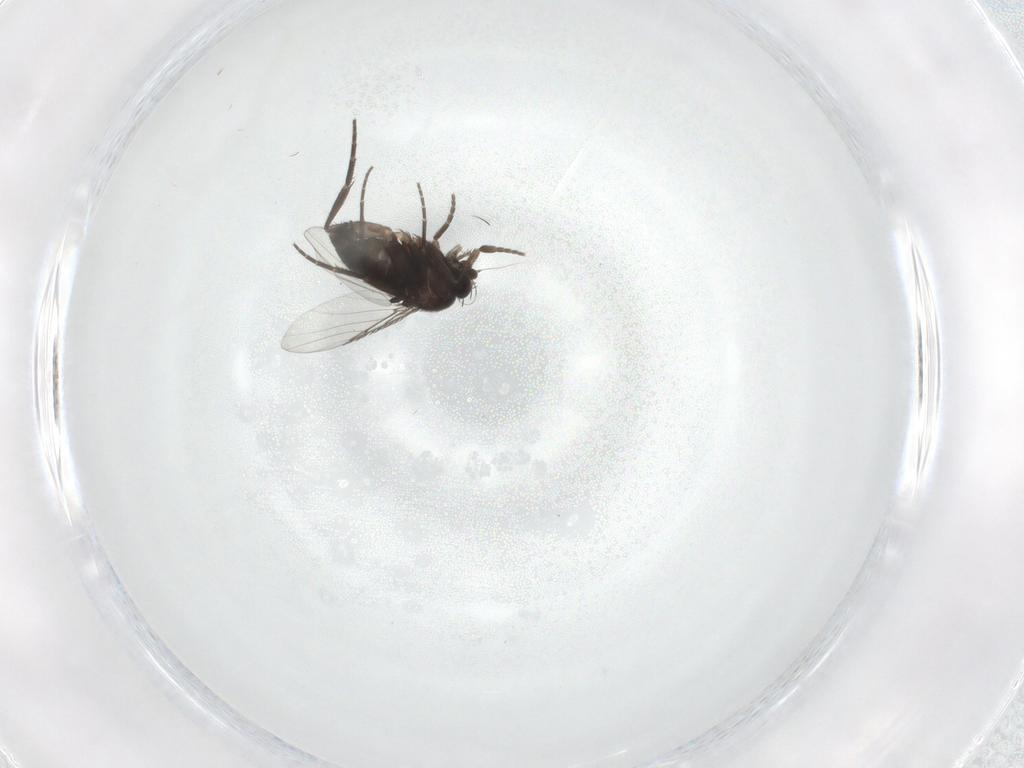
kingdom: Animalia
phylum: Arthropoda
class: Insecta
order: Diptera
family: Phoridae
